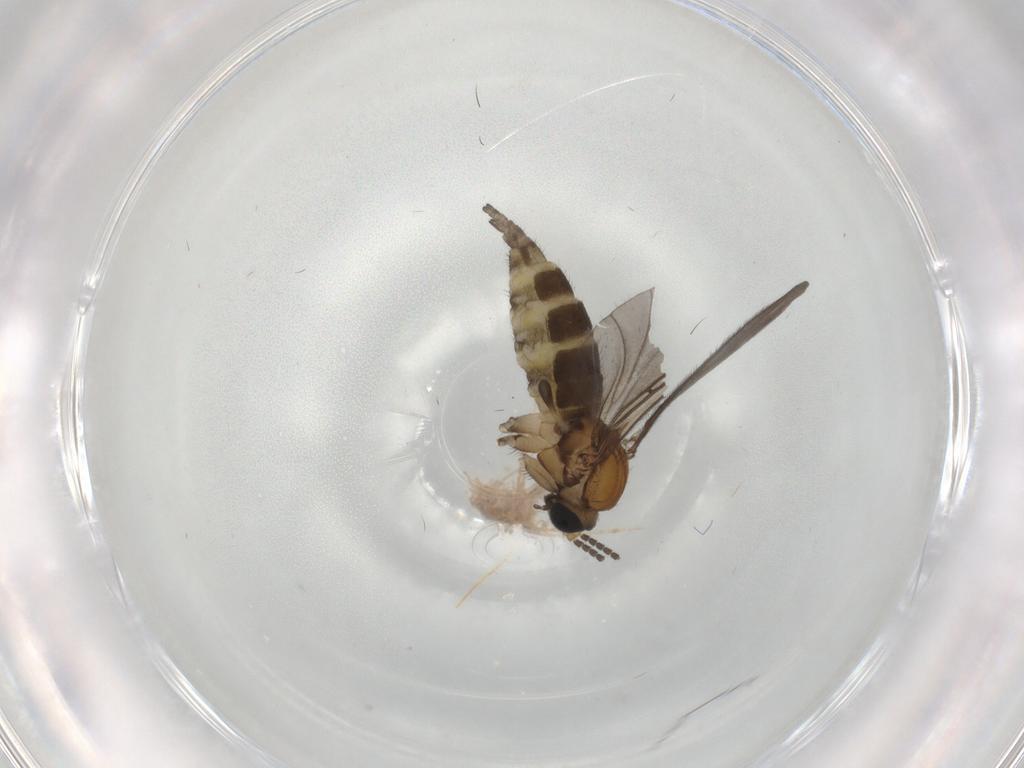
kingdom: Animalia
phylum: Arthropoda
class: Insecta
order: Diptera
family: Sciaridae
